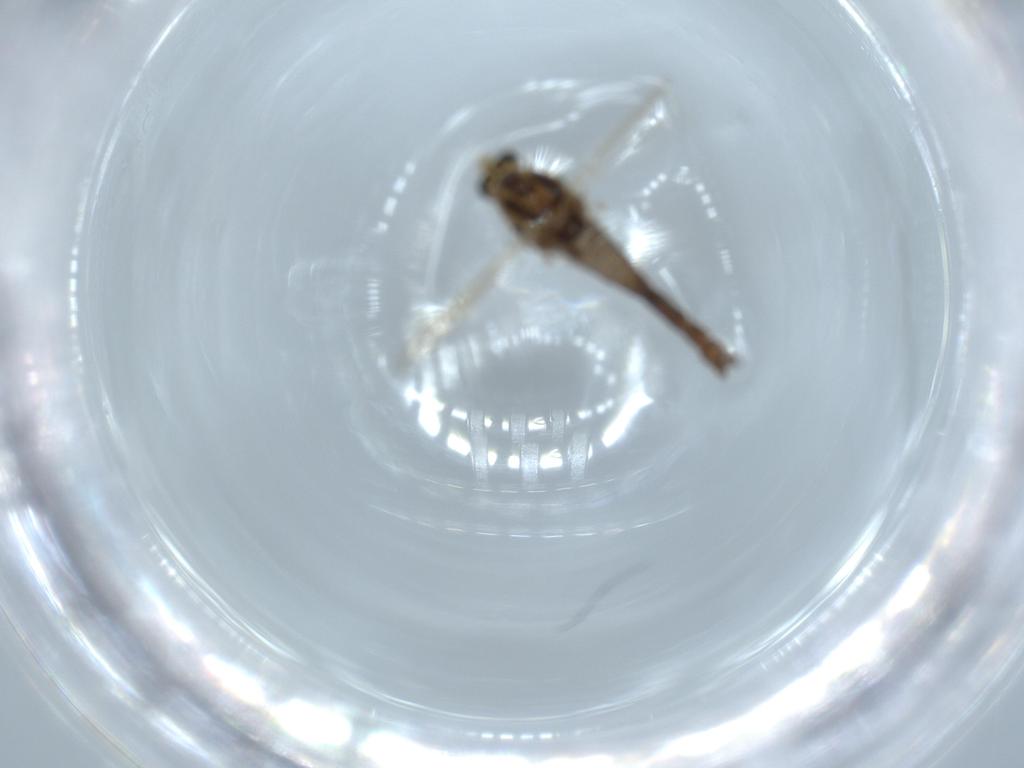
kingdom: Animalia
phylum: Arthropoda
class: Insecta
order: Diptera
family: Chironomidae
